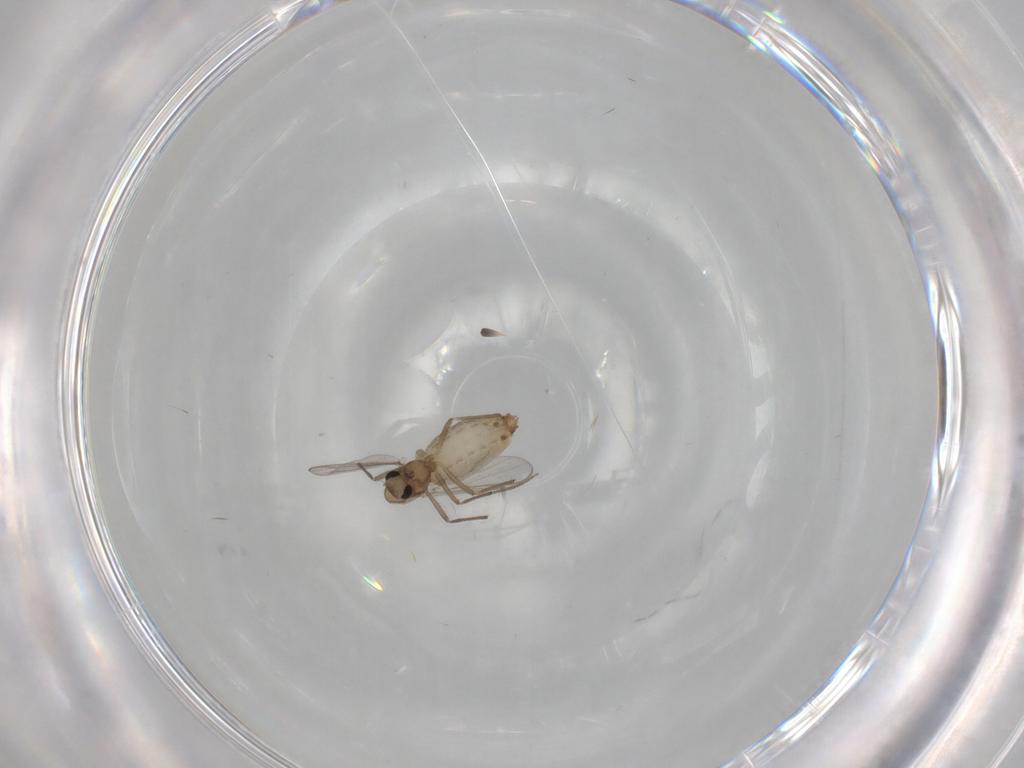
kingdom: Animalia
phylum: Arthropoda
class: Insecta
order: Diptera
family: Chironomidae
